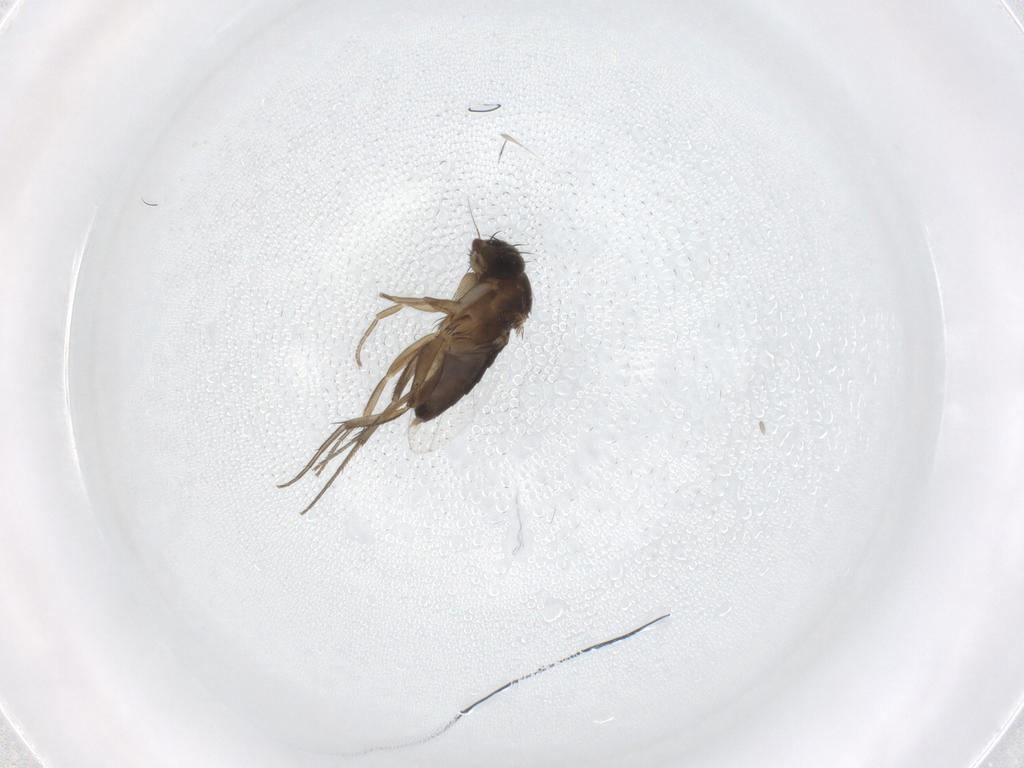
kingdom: Animalia
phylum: Arthropoda
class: Insecta
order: Diptera
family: Phoridae
